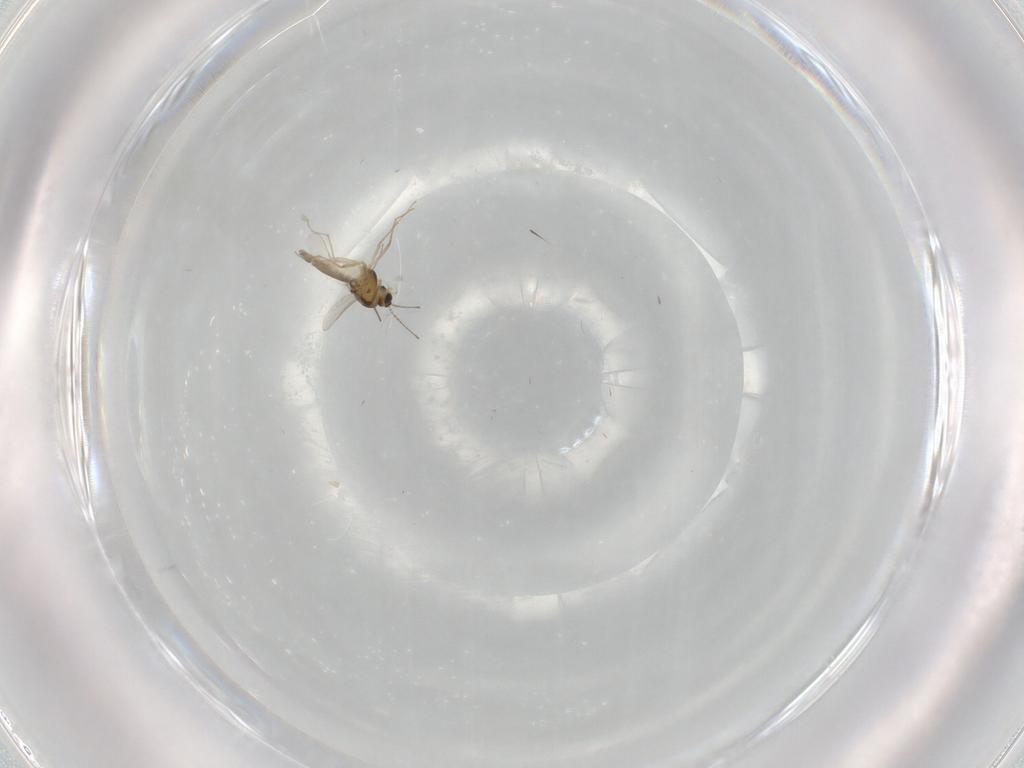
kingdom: Animalia
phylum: Arthropoda
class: Insecta
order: Diptera
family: Chironomidae
